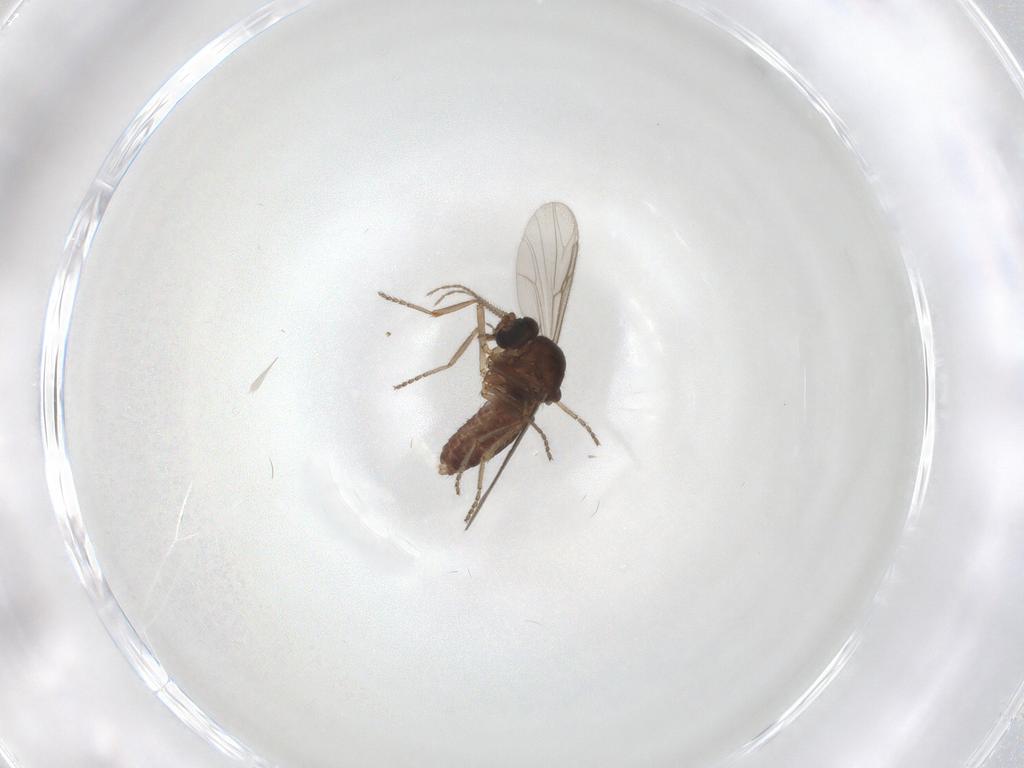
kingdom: Animalia
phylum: Arthropoda
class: Insecta
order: Diptera
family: Ceratopogonidae
